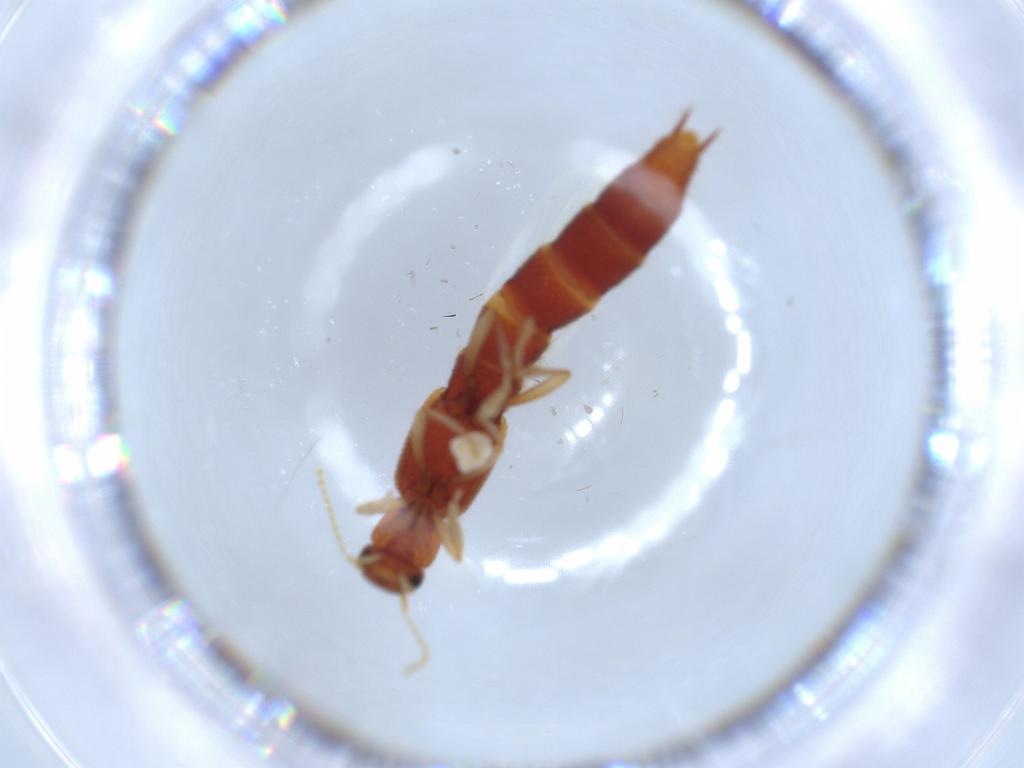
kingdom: Animalia
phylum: Arthropoda
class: Insecta
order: Coleoptera
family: Staphylinidae
